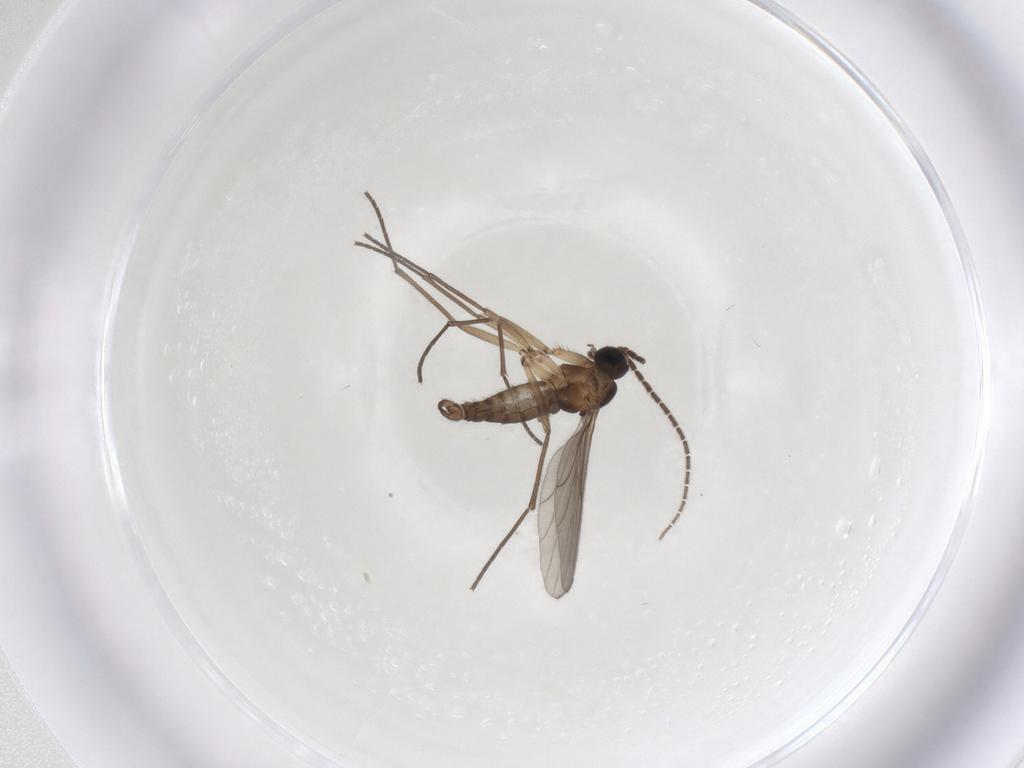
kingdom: Animalia
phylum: Arthropoda
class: Insecta
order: Diptera
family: Sciaridae
